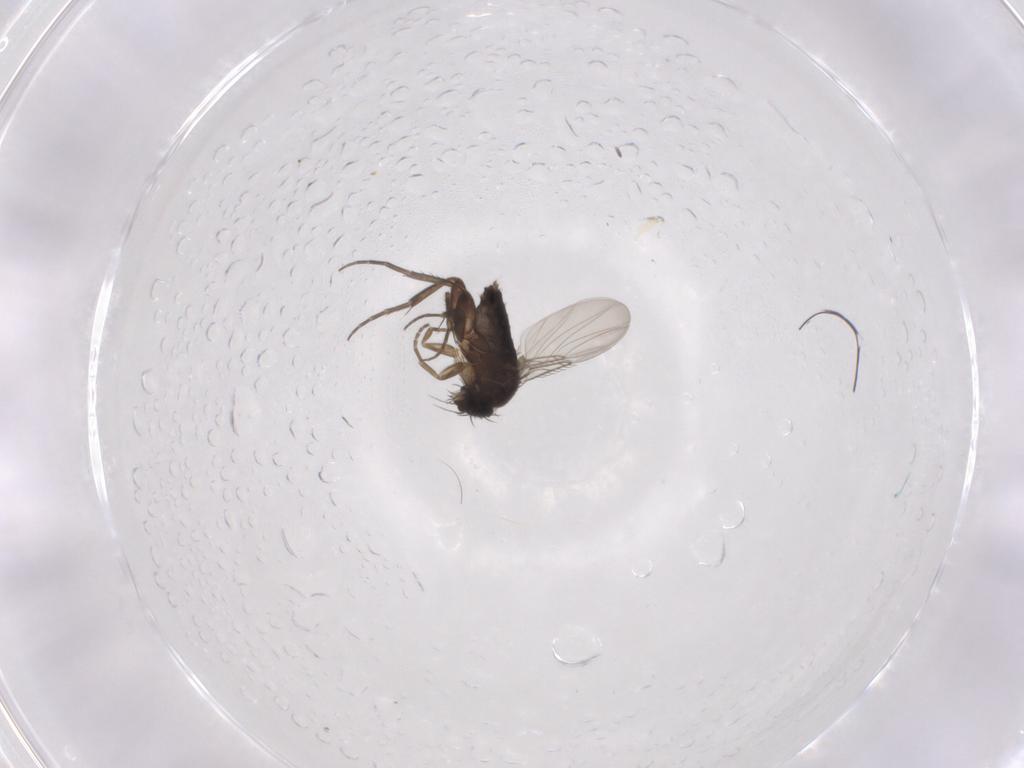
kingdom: Animalia
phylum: Arthropoda
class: Insecta
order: Diptera
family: Phoridae
